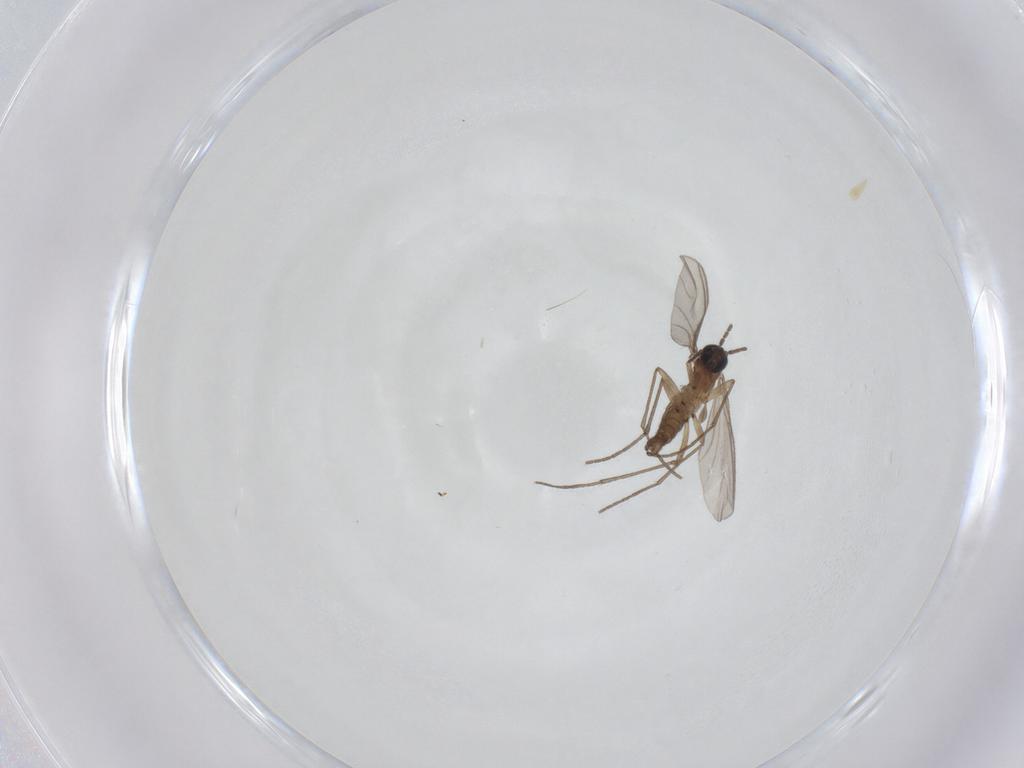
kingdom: Animalia
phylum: Arthropoda
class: Insecta
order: Diptera
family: Sciaridae
